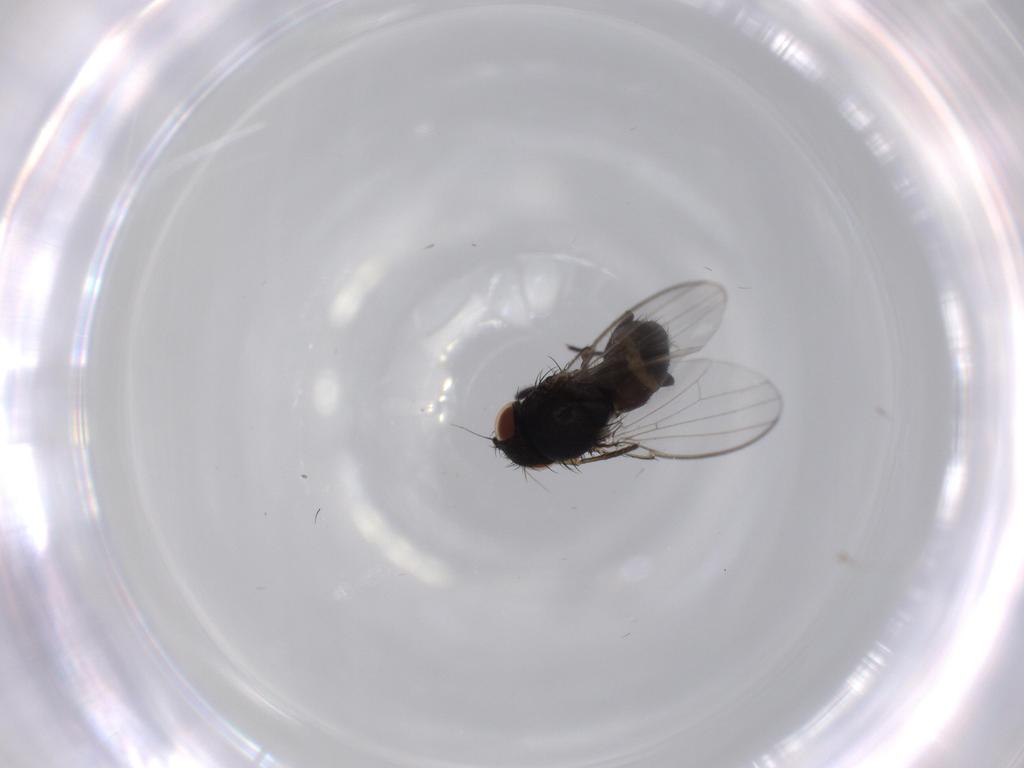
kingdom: Animalia
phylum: Arthropoda
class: Insecta
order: Diptera
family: Milichiidae
